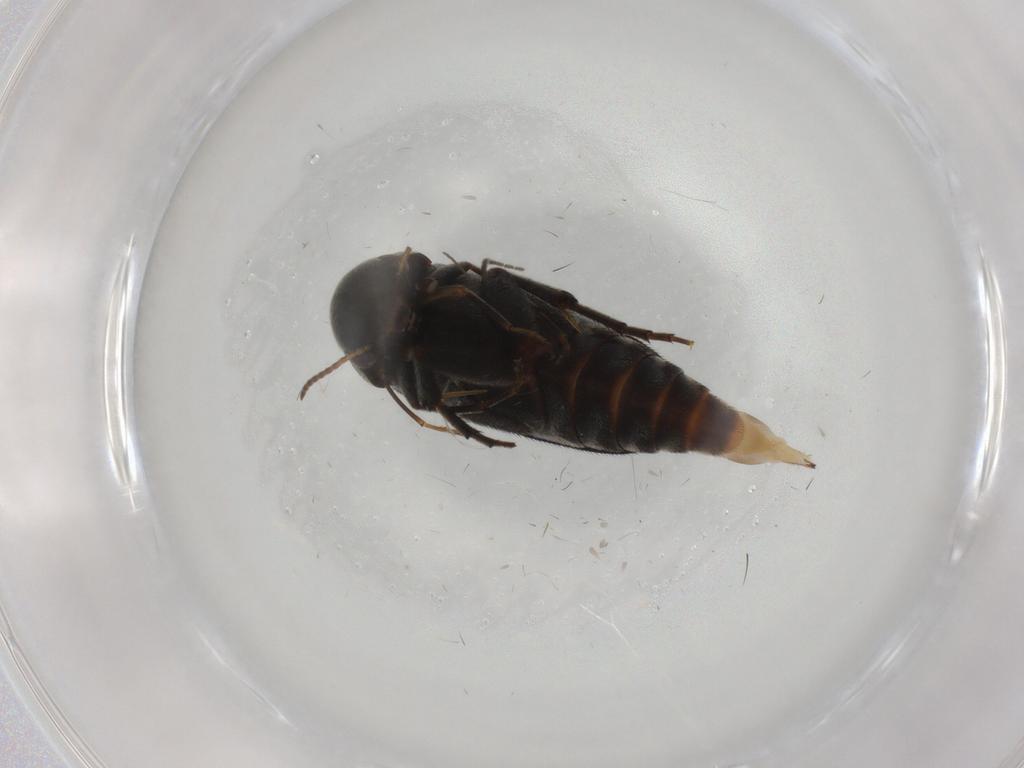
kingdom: Animalia
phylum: Arthropoda
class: Insecta
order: Coleoptera
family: Mordellidae
